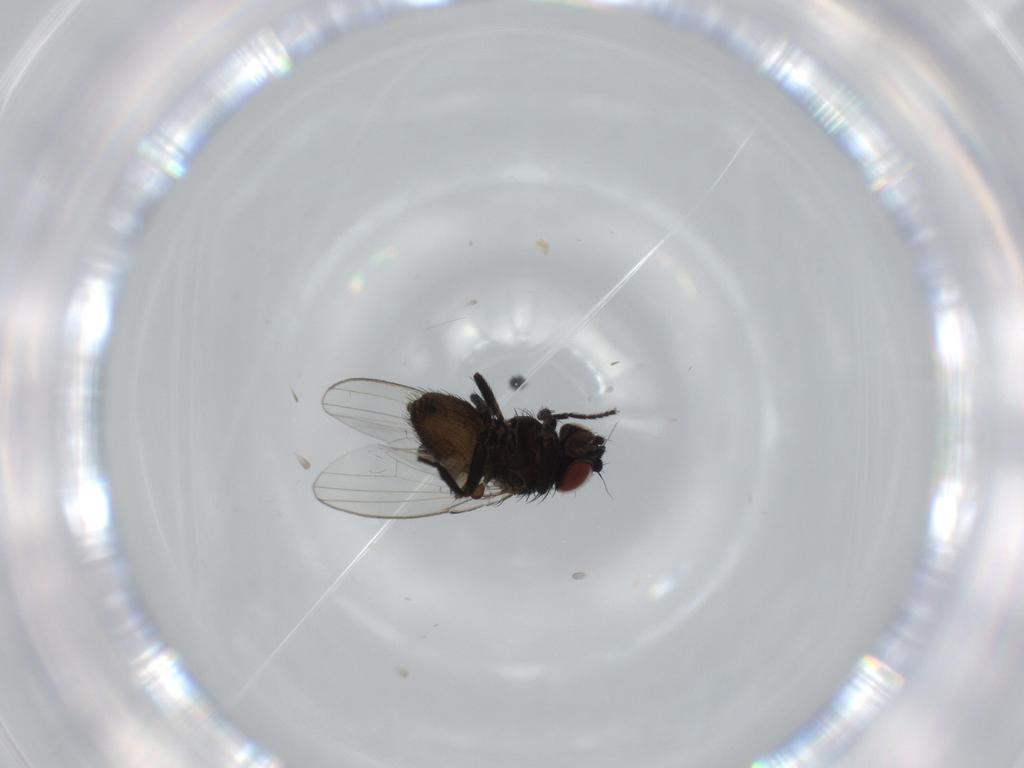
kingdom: Animalia
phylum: Arthropoda
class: Insecta
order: Diptera
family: Milichiidae
